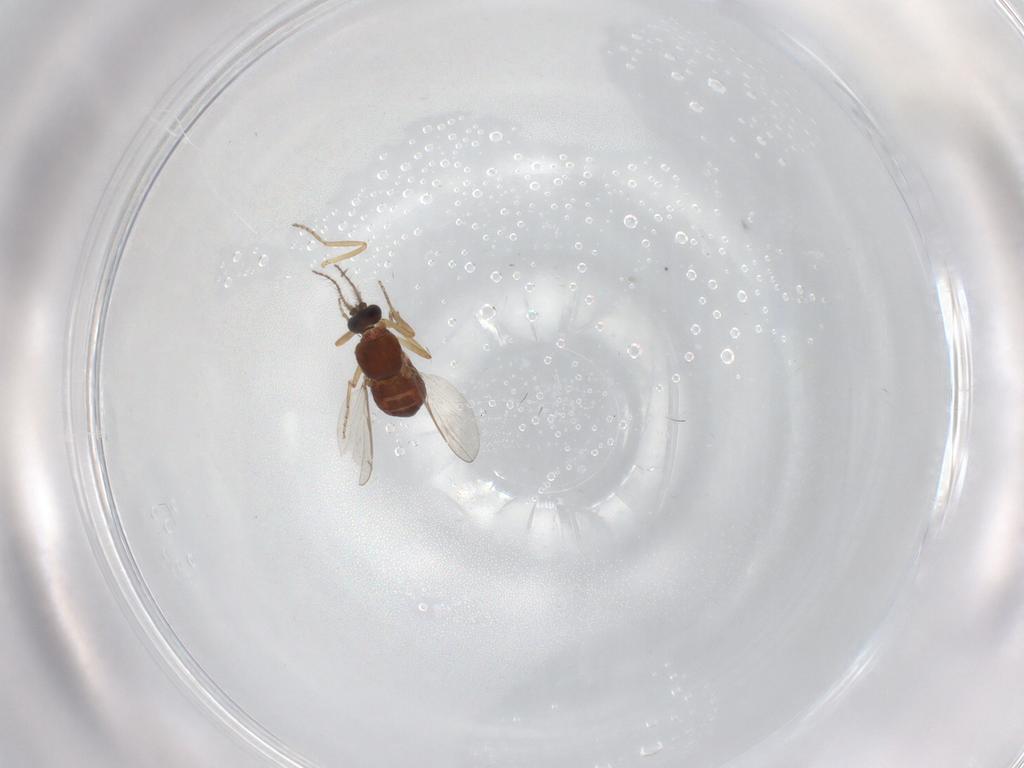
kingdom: Animalia
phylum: Arthropoda
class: Insecta
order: Diptera
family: Ceratopogonidae
